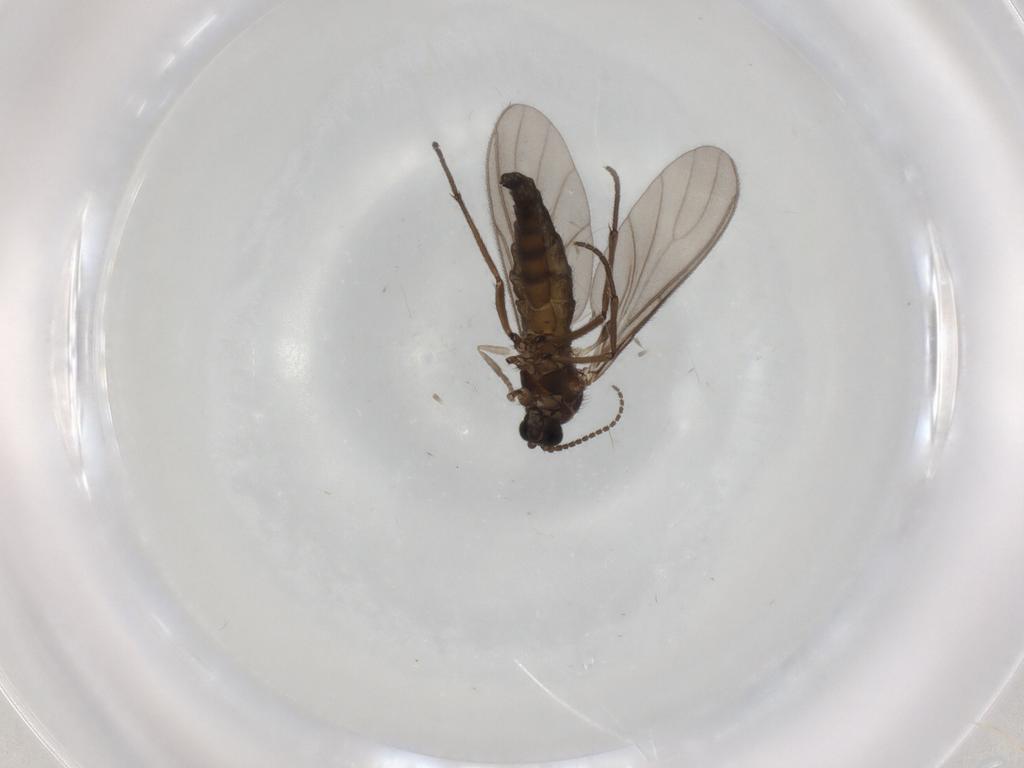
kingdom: Animalia
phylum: Arthropoda
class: Insecta
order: Diptera
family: Sciaridae
